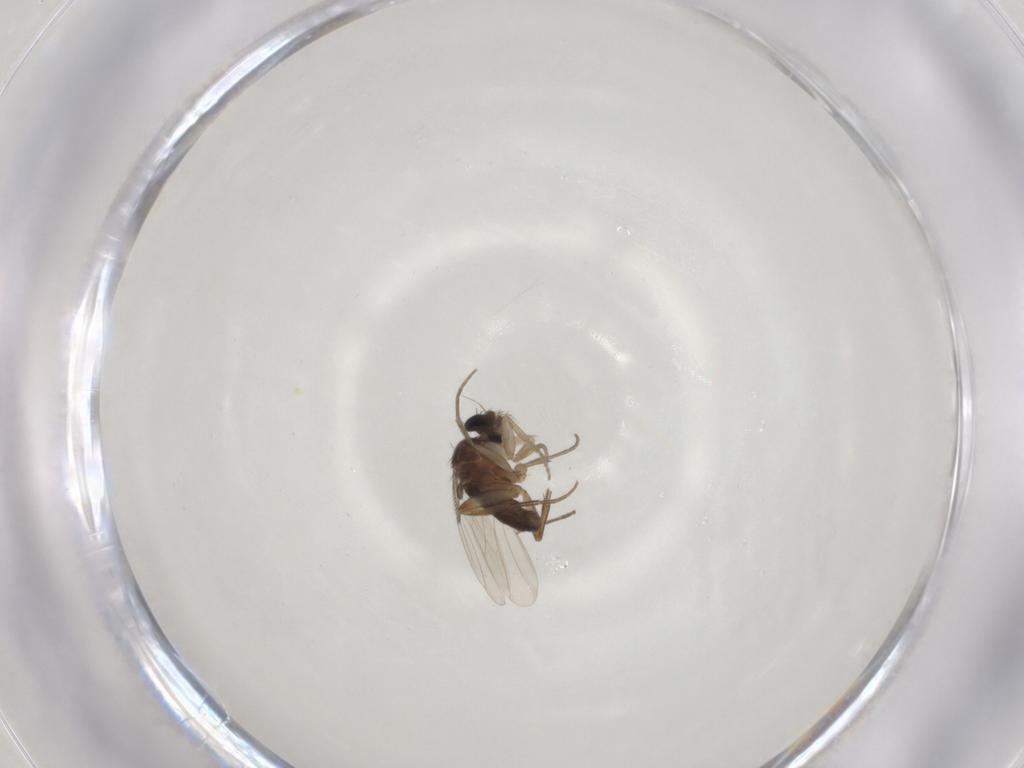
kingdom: Animalia
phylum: Arthropoda
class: Insecta
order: Diptera
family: Phoridae
